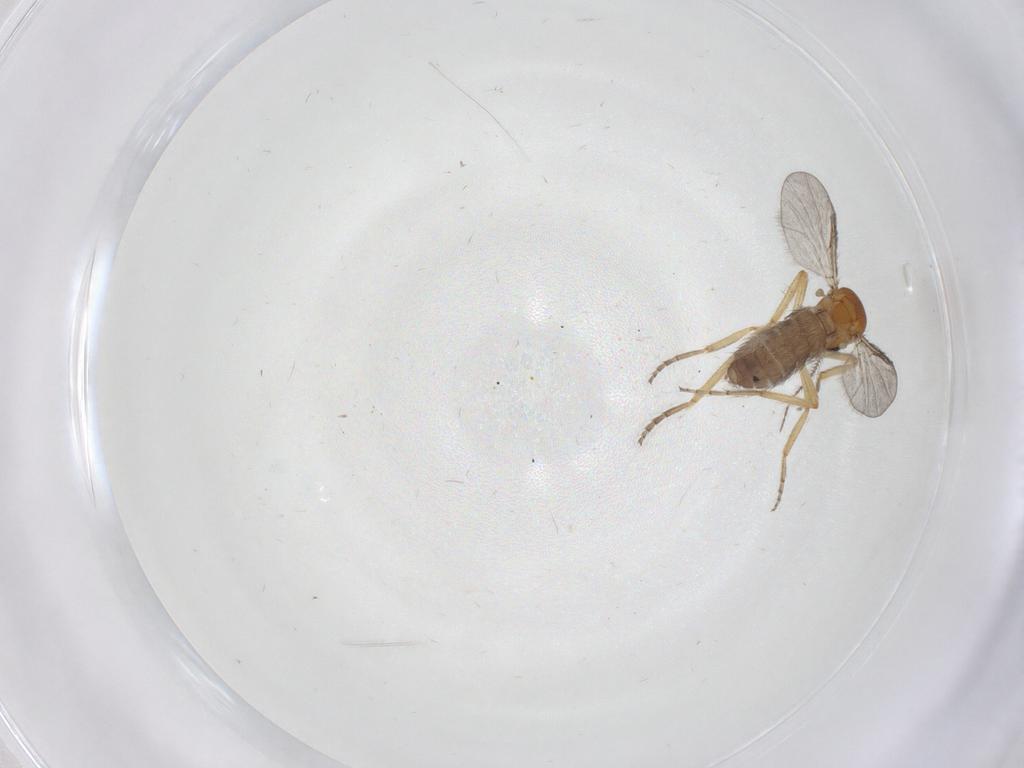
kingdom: Animalia
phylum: Arthropoda
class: Insecta
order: Diptera
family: Ceratopogonidae
